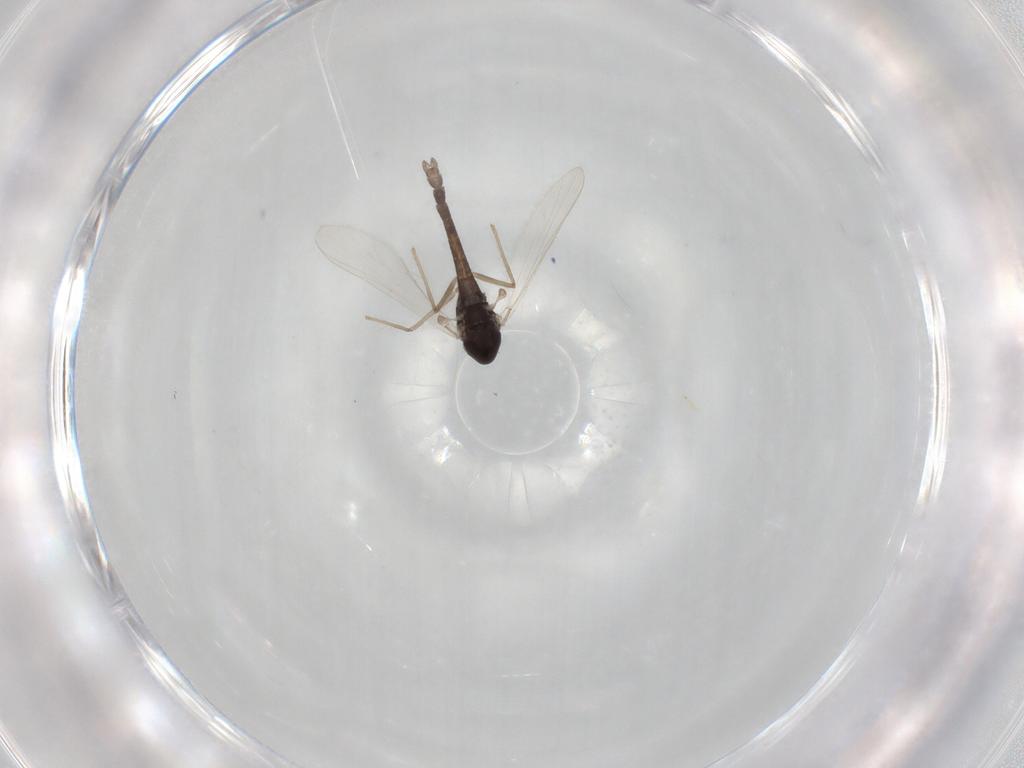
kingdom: Animalia
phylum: Arthropoda
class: Insecta
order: Diptera
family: Chironomidae
